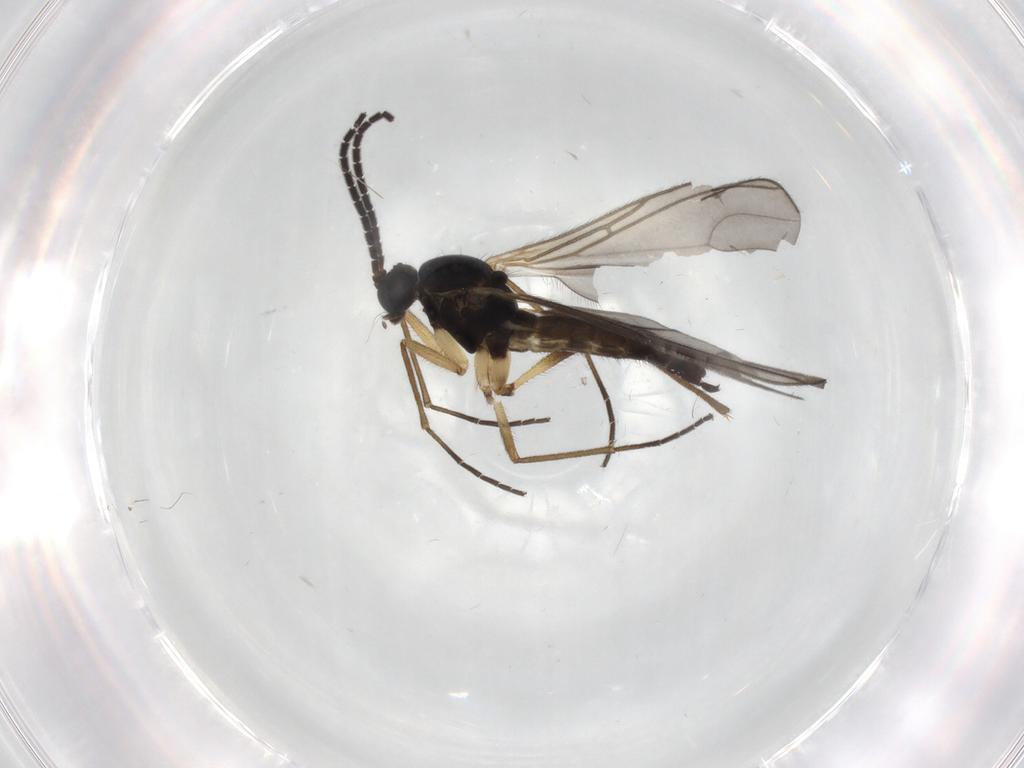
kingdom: Animalia
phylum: Arthropoda
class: Insecta
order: Diptera
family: Sciaridae
